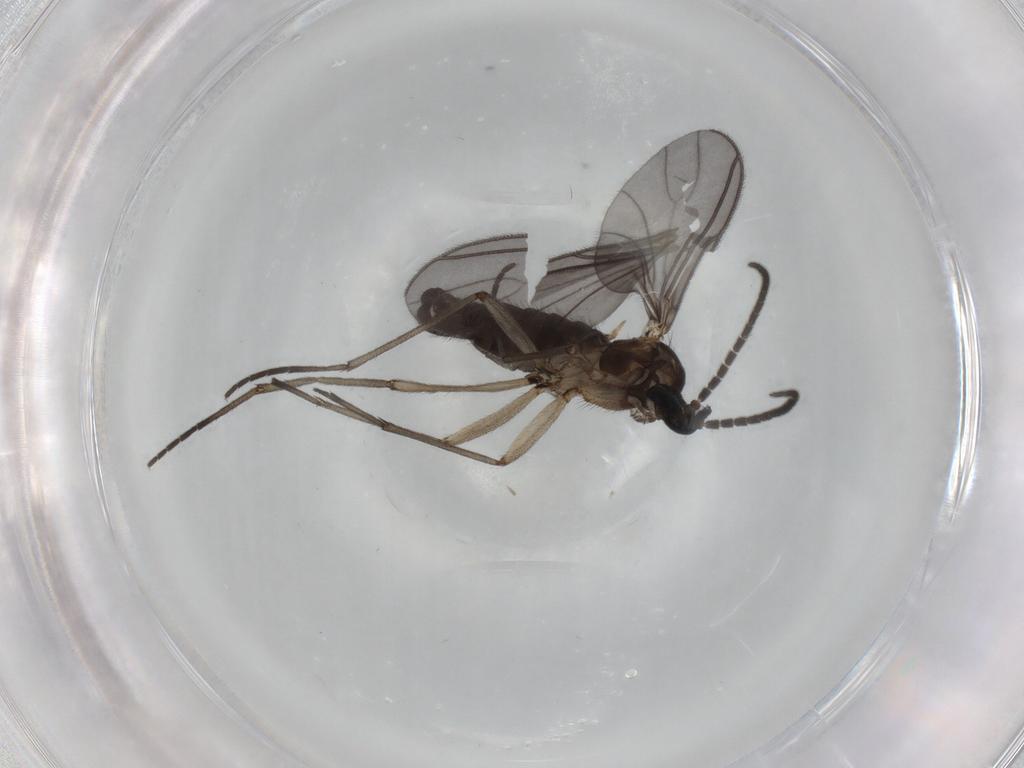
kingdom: Animalia
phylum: Arthropoda
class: Insecta
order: Diptera
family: Sciaridae
